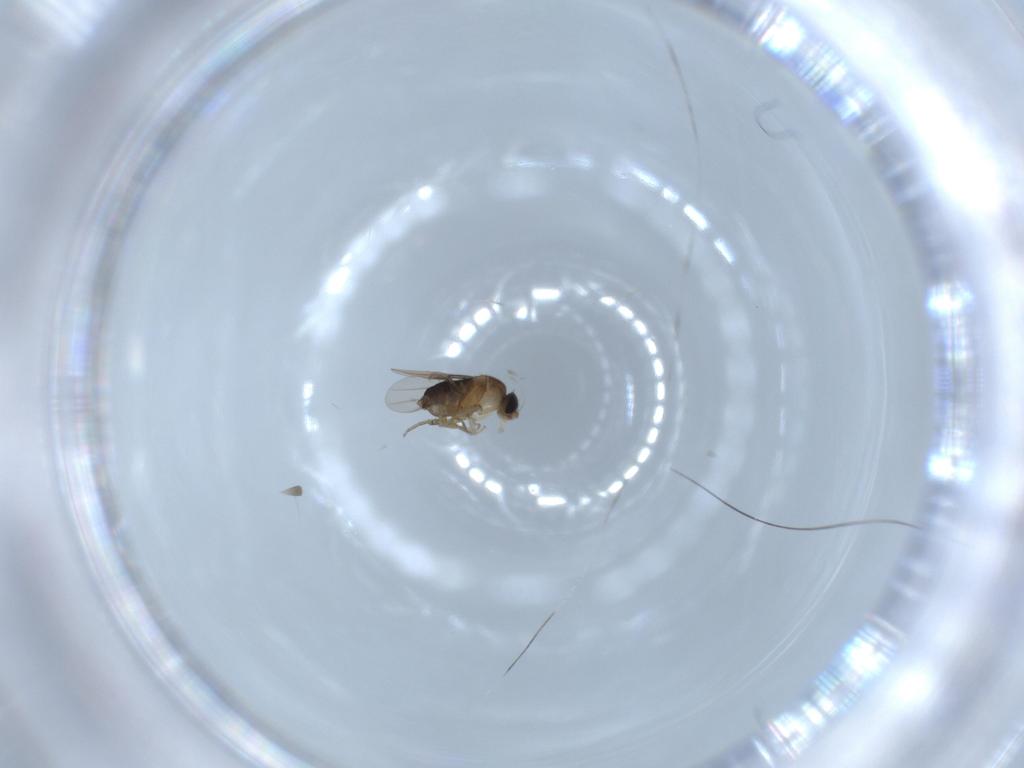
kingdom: Animalia
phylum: Arthropoda
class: Insecta
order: Diptera
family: Phoridae
